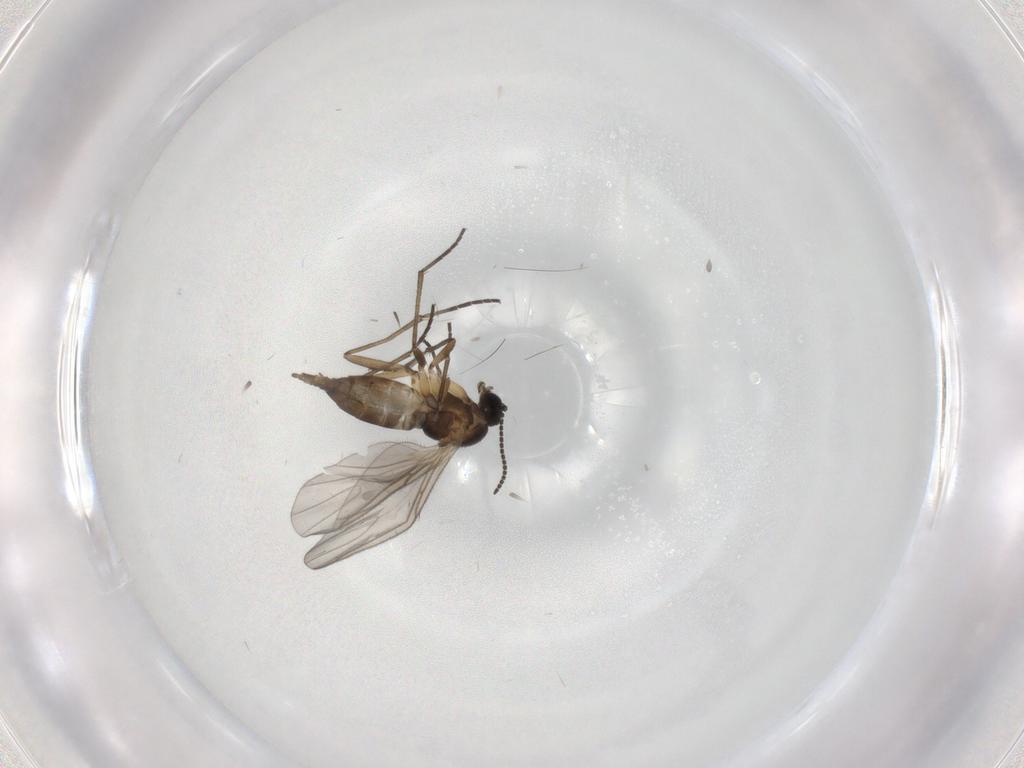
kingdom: Animalia
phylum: Arthropoda
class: Insecta
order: Diptera
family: Sciaridae
